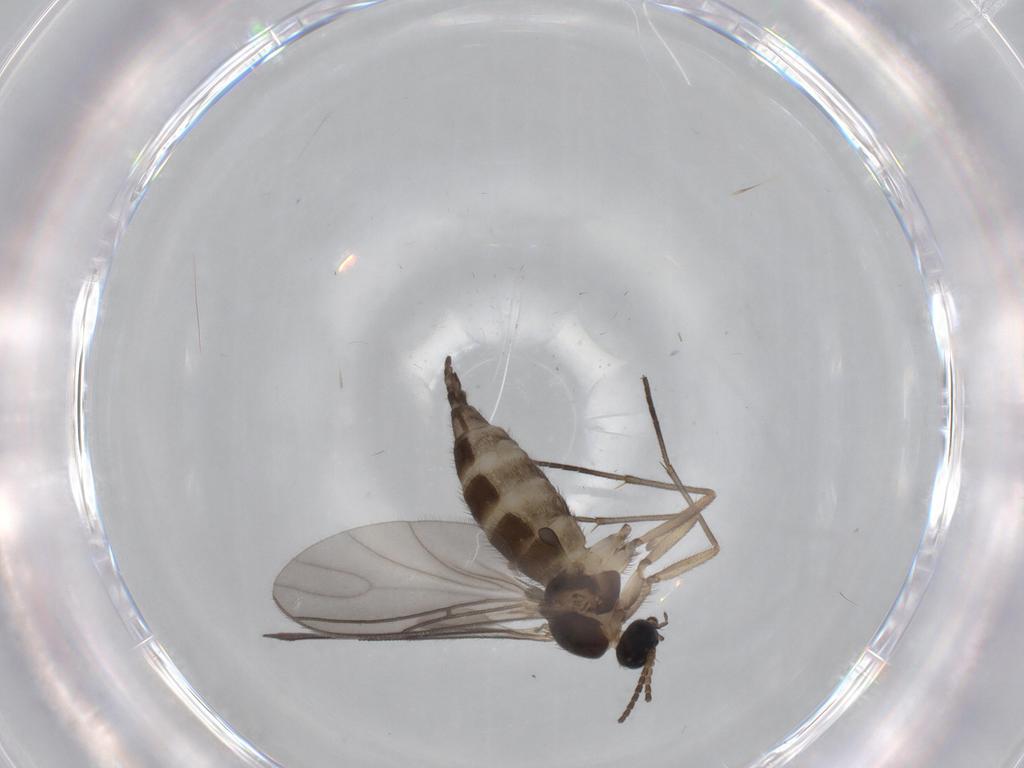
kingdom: Animalia
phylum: Arthropoda
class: Insecta
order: Diptera
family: Sciaridae
